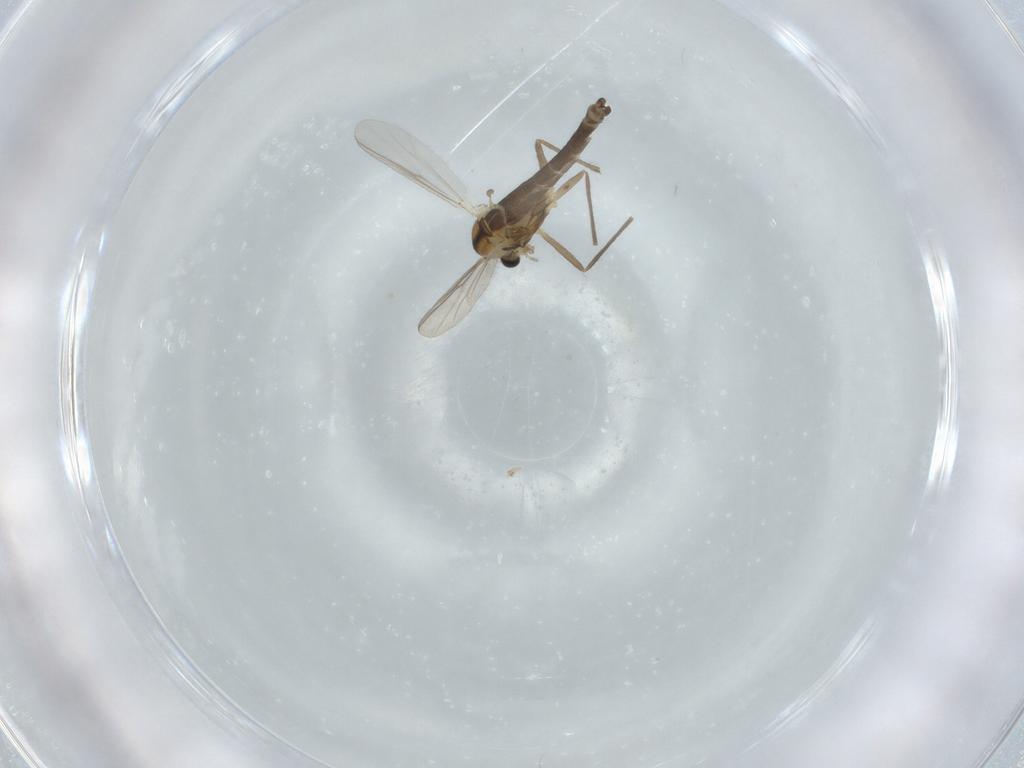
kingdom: Animalia
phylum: Arthropoda
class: Insecta
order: Diptera
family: Chironomidae
